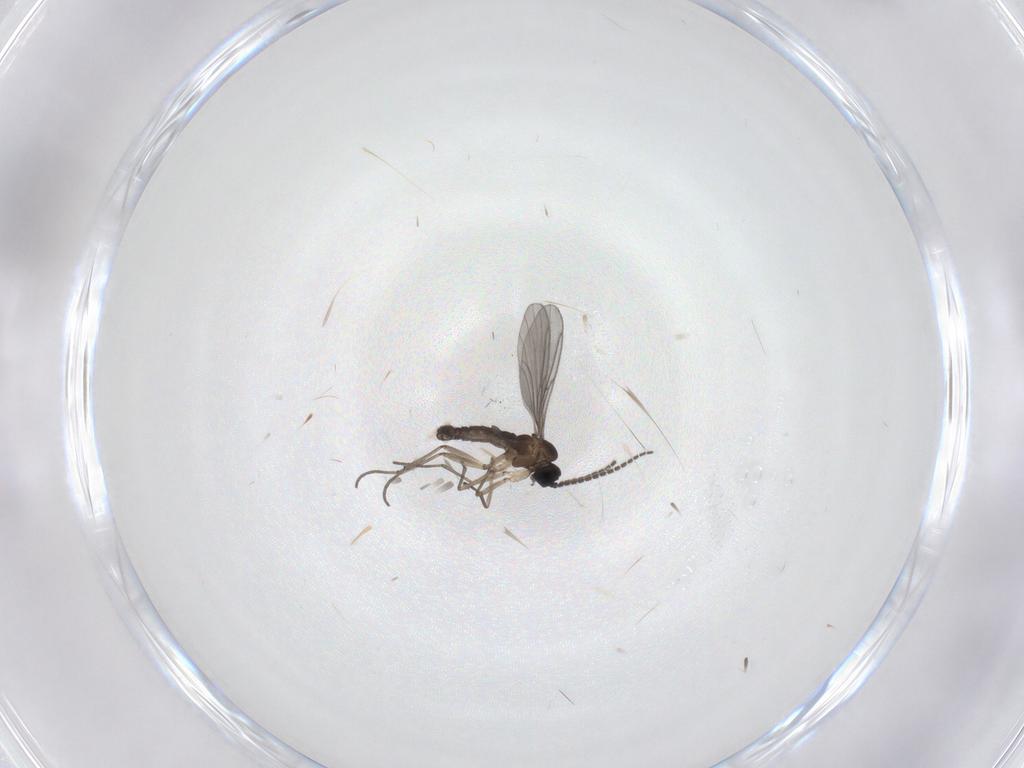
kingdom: Animalia
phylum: Arthropoda
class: Insecta
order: Diptera
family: Sciaridae
